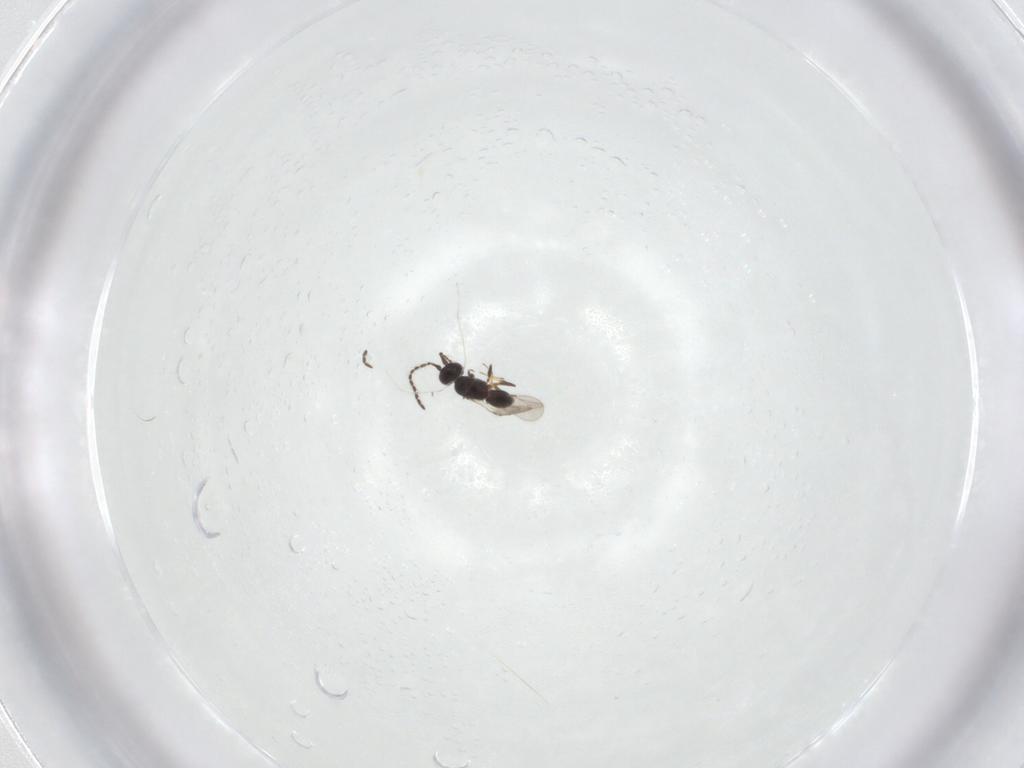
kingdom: Animalia
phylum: Arthropoda
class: Insecta
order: Hymenoptera
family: Ceraphronidae
